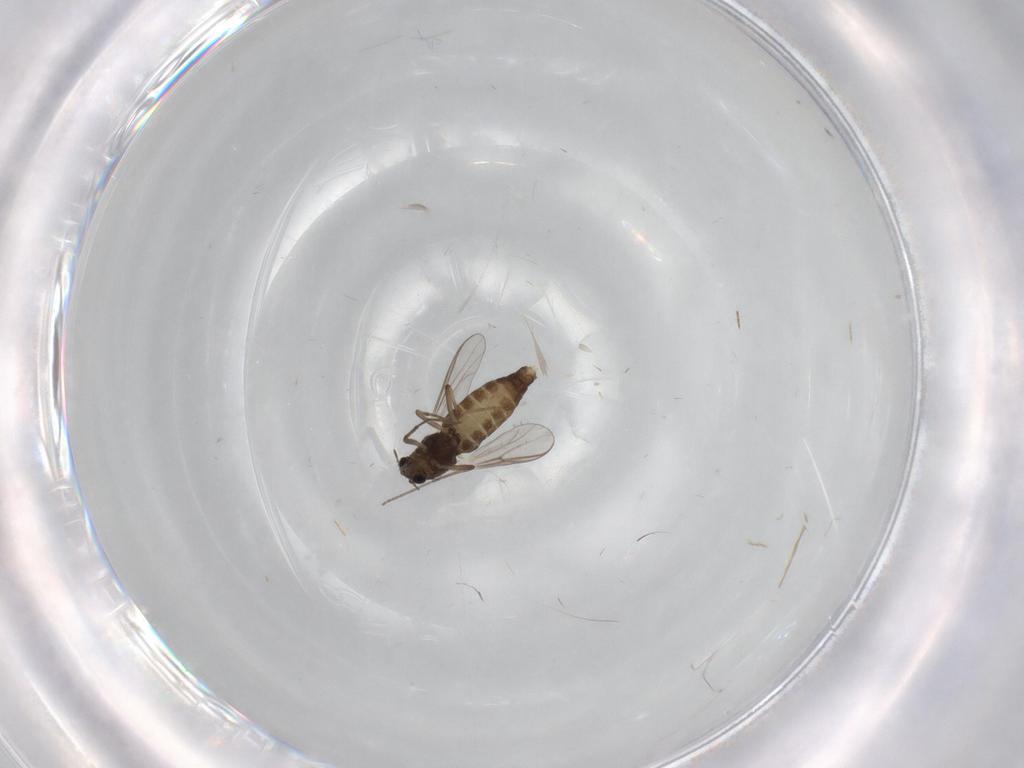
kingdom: Animalia
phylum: Arthropoda
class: Insecta
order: Diptera
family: Chironomidae
